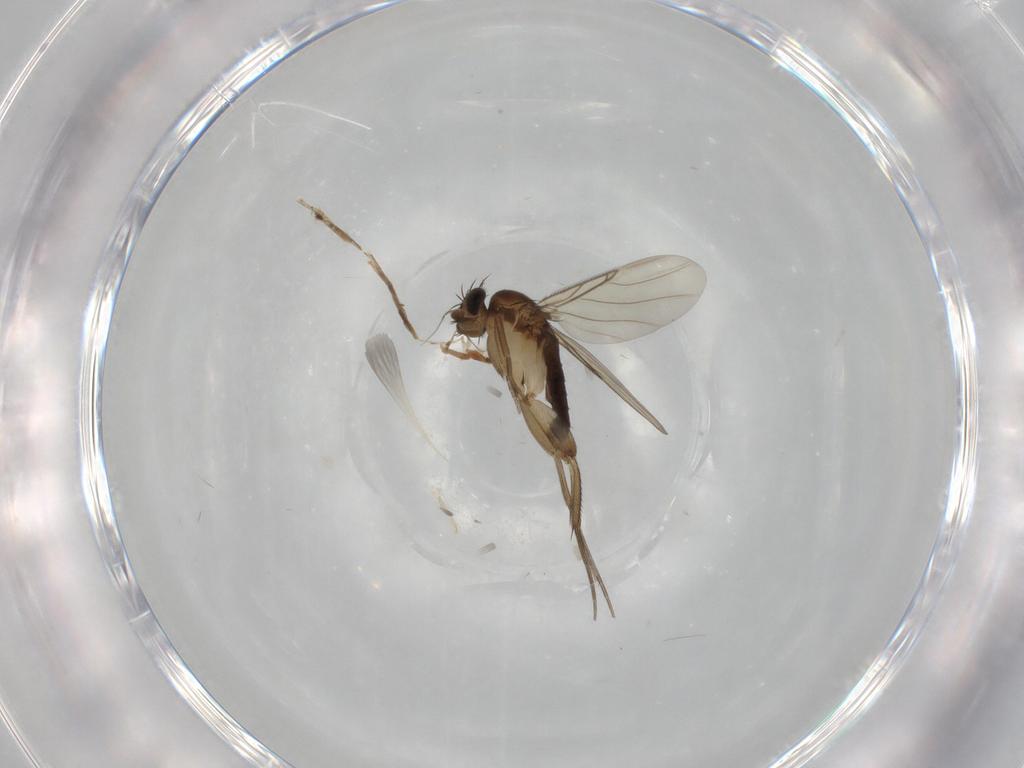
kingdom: Animalia
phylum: Arthropoda
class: Insecta
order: Diptera
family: Phoridae
